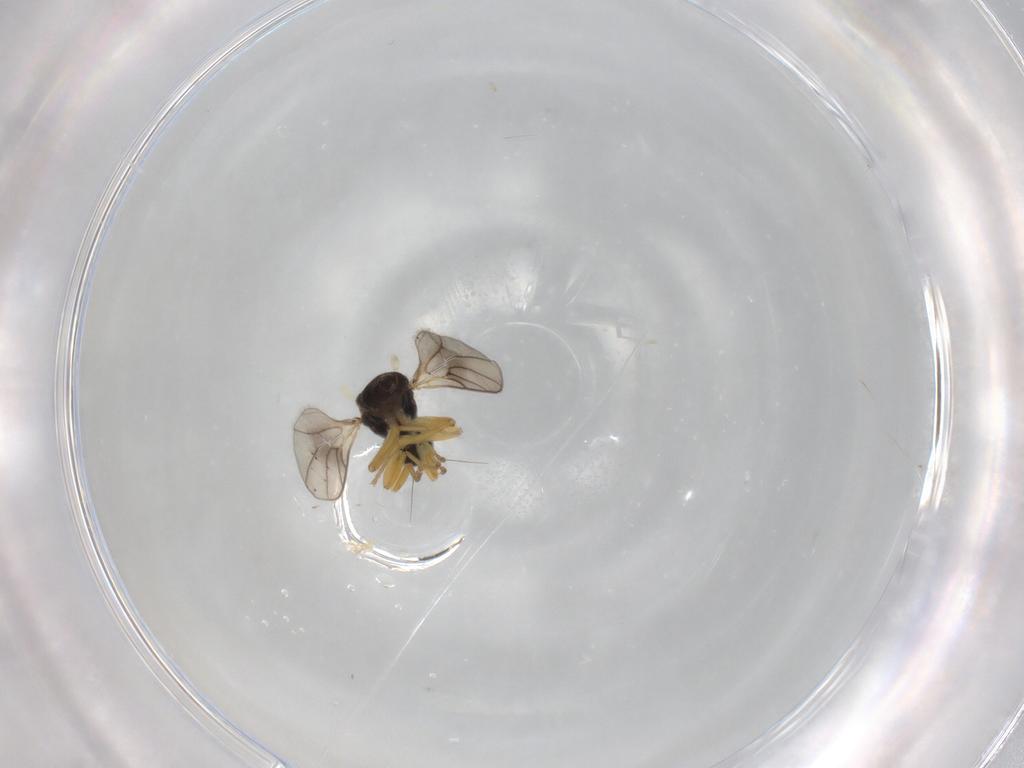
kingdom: Animalia
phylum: Arthropoda
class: Insecta
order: Diptera
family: Hybotidae
